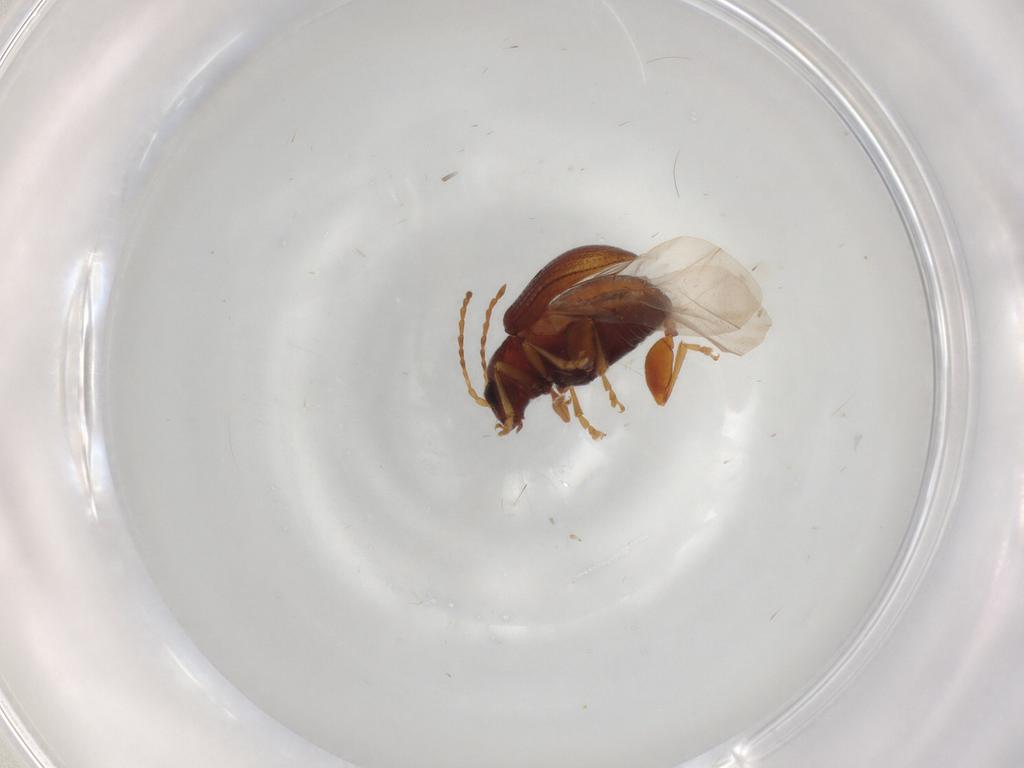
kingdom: Animalia
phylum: Arthropoda
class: Insecta
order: Coleoptera
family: Chrysomelidae
